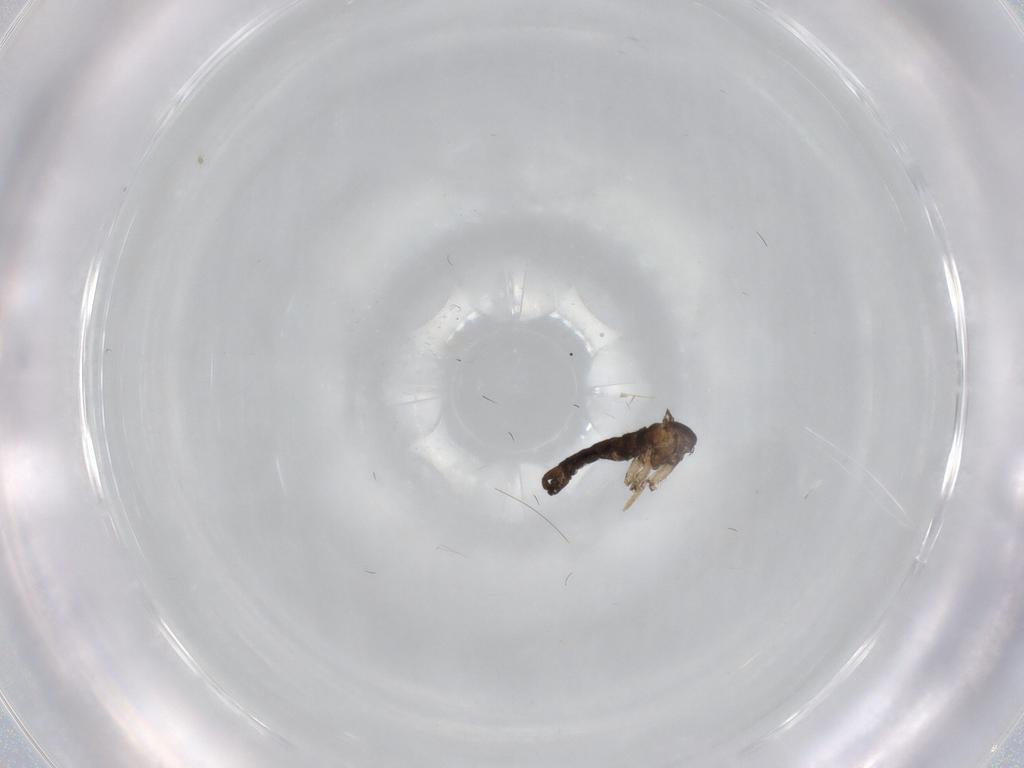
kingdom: Animalia
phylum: Arthropoda
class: Insecta
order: Diptera
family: Sciaridae
